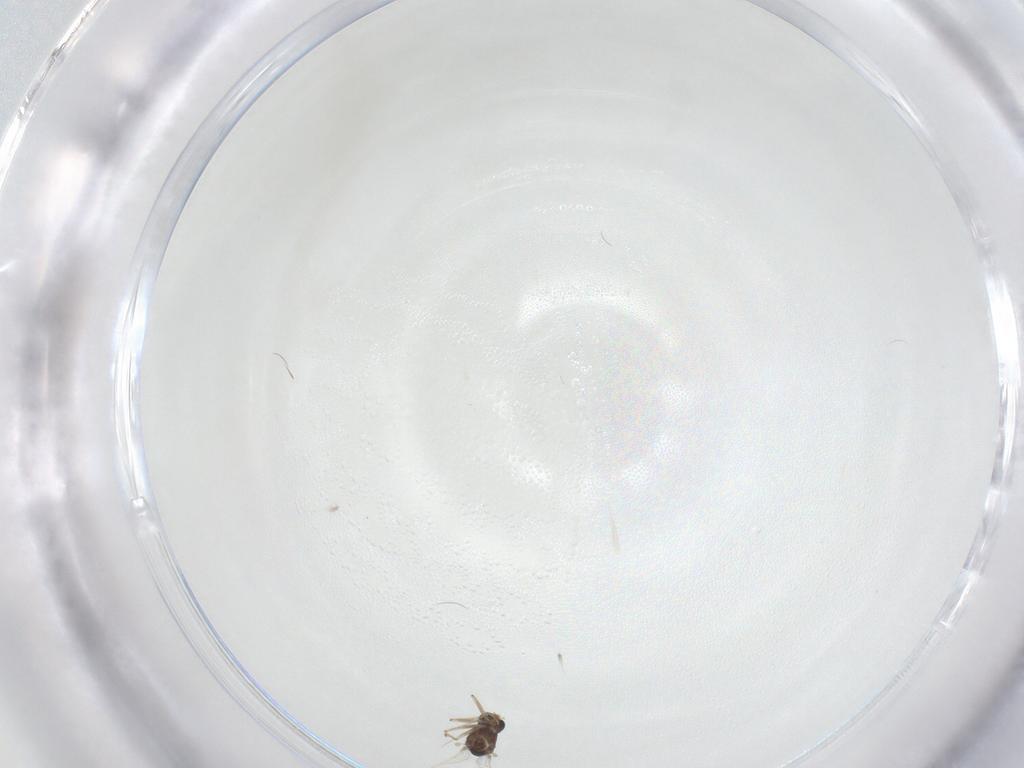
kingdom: Animalia
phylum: Arthropoda
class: Insecta
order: Diptera
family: Chironomidae
